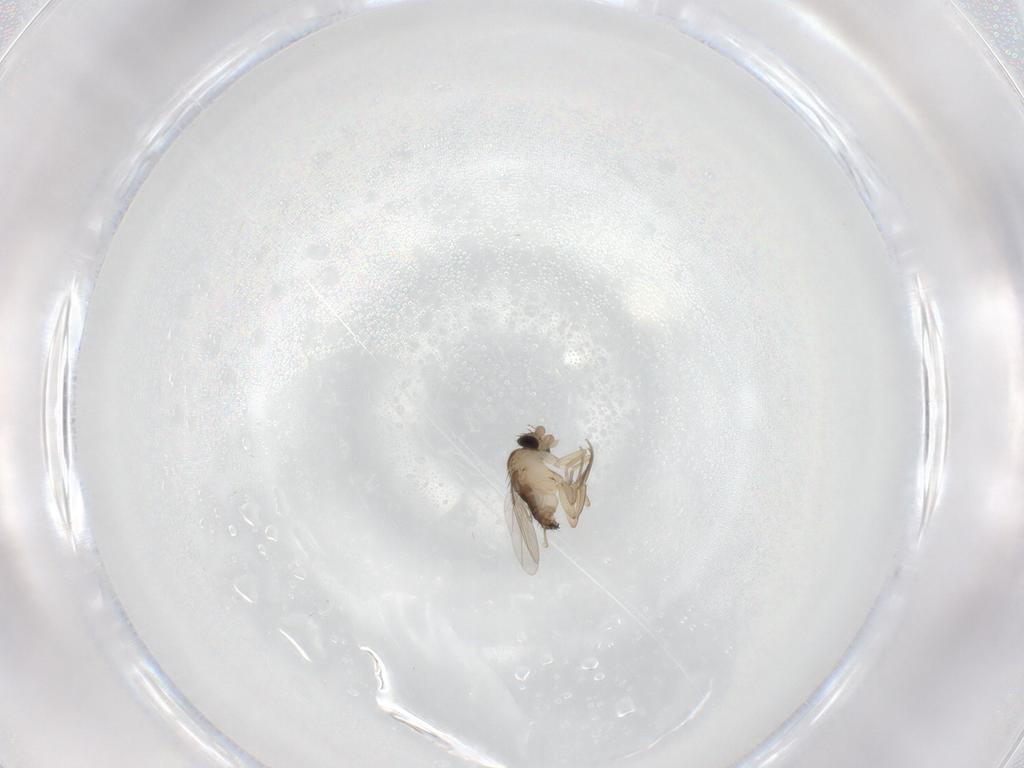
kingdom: Animalia
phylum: Arthropoda
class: Insecta
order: Diptera
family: Phoridae
